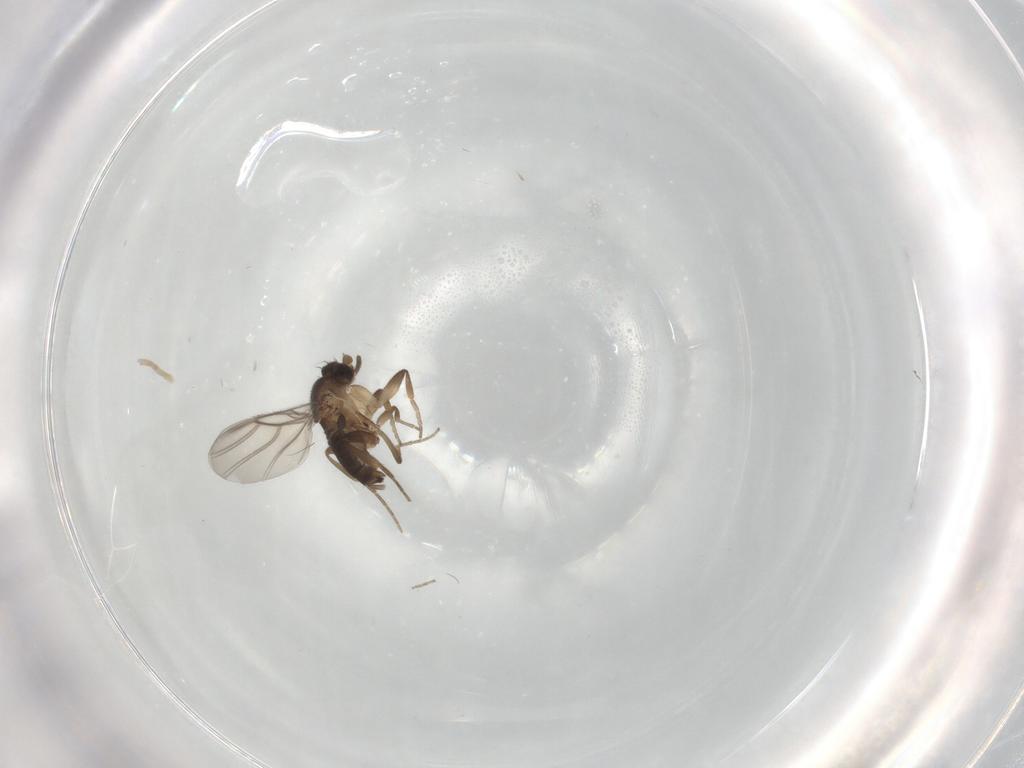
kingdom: Animalia
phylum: Arthropoda
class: Insecta
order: Diptera
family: Sciaridae
